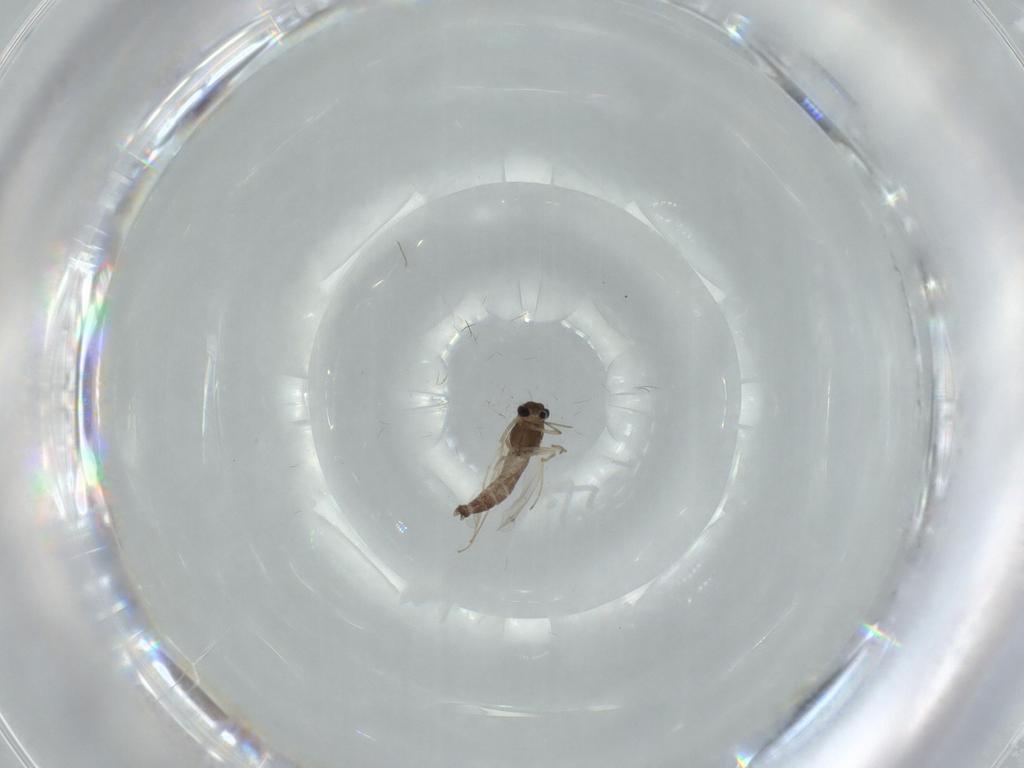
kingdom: Animalia
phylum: Arthropoda
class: Insecta
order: Diptera
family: Chironomidae
